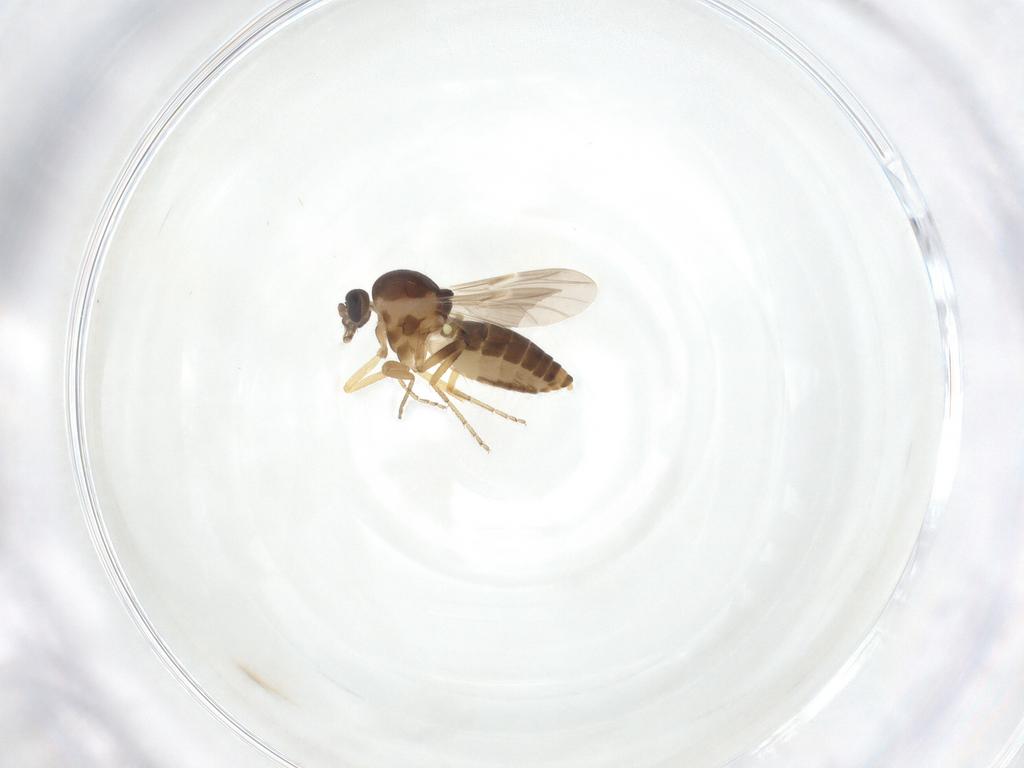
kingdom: Animalia
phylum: Arthropoda
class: Insecta
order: Diptera
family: Ceratopogonidae
